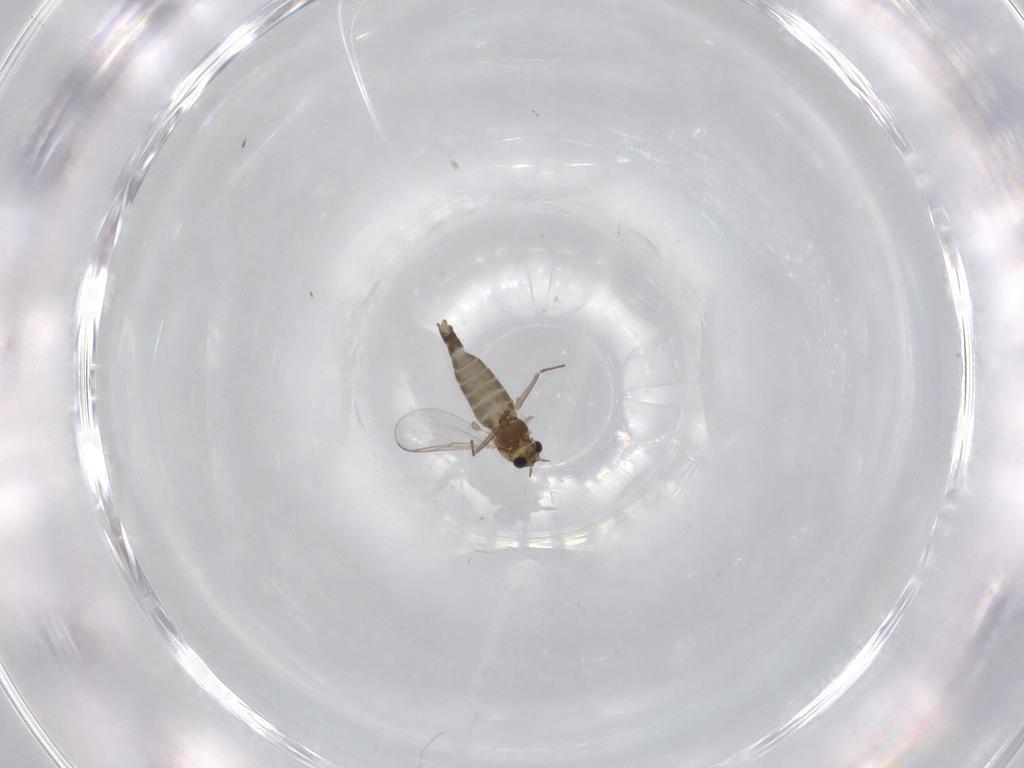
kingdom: Animalia
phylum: Arthropoda
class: Insecta
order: Diptera
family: Chironomidae
